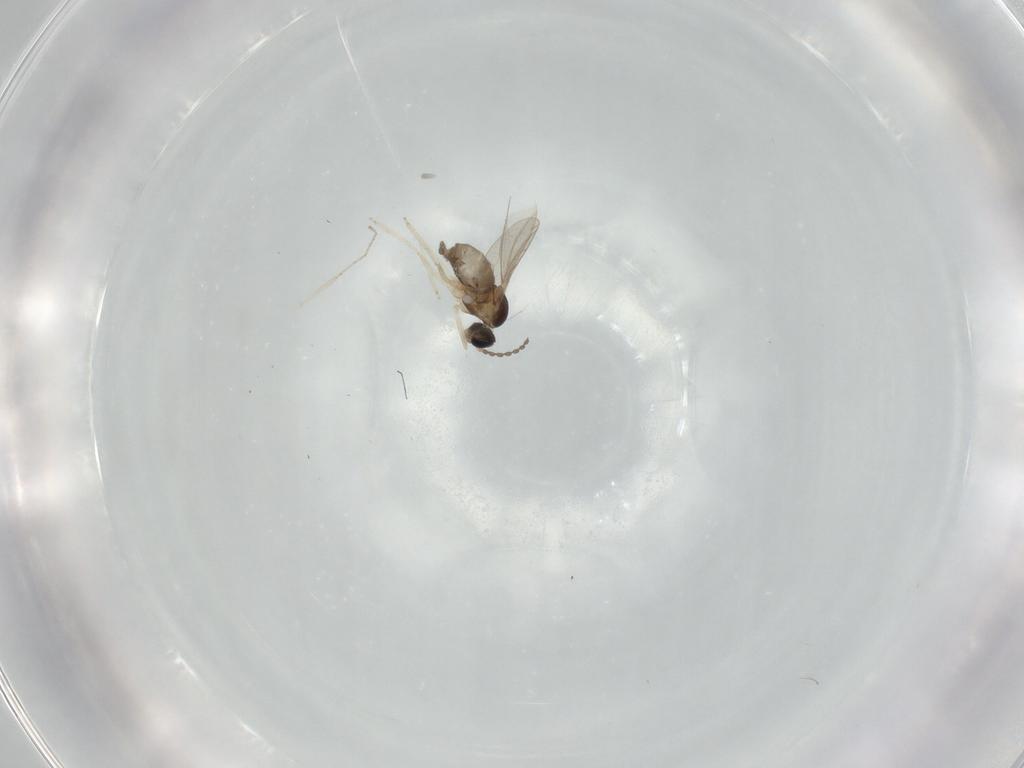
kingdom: Animalia
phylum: Arthropoda
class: Insecta
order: Diptera
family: Mycetophilidae
